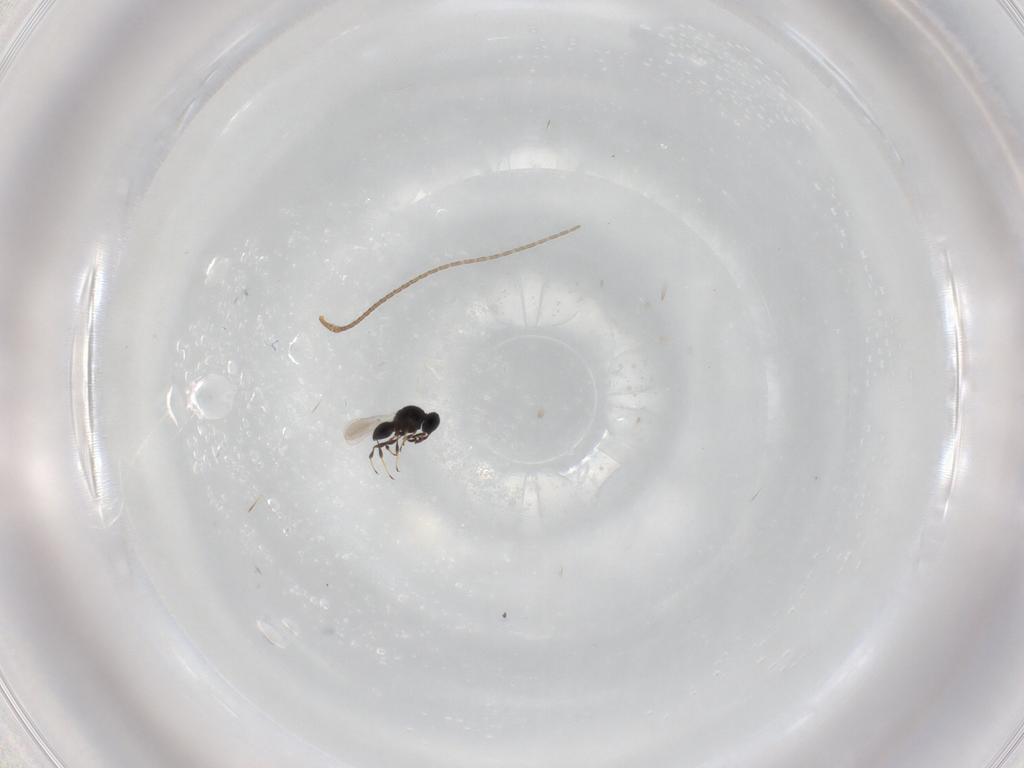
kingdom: Animalia
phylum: Arthropoda
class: Insecta
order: Hymenoptera
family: Platygastridae
